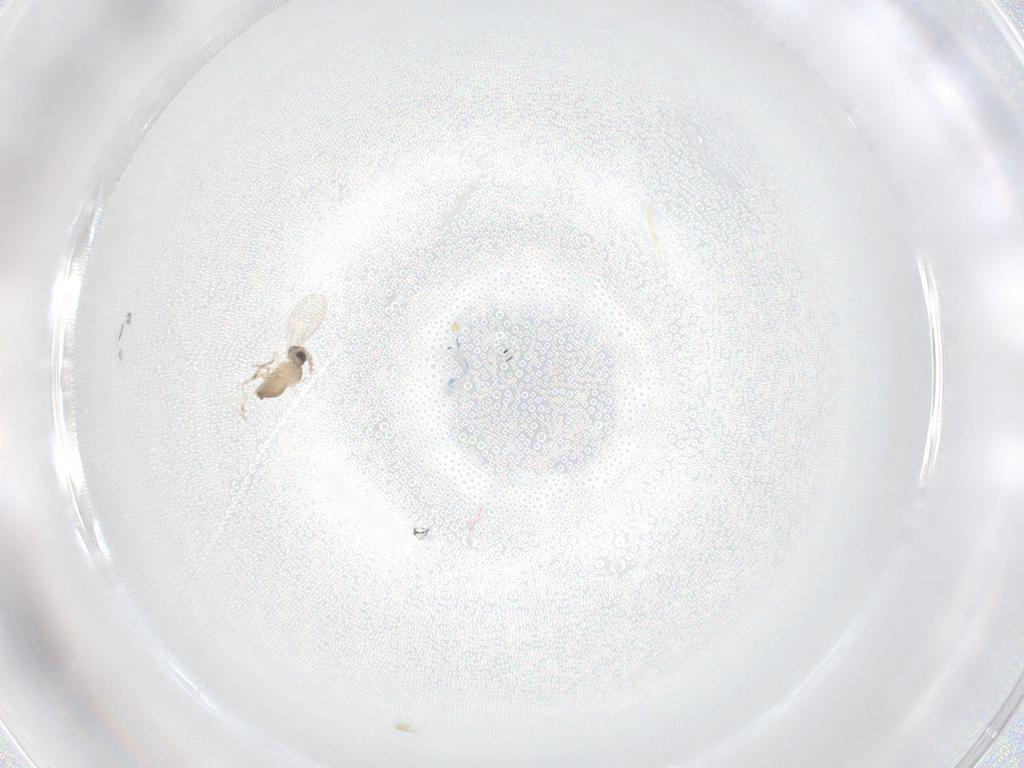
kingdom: Animalia
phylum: Arthropoda
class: Insecta
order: Diptera
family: Cecidomyiidae
